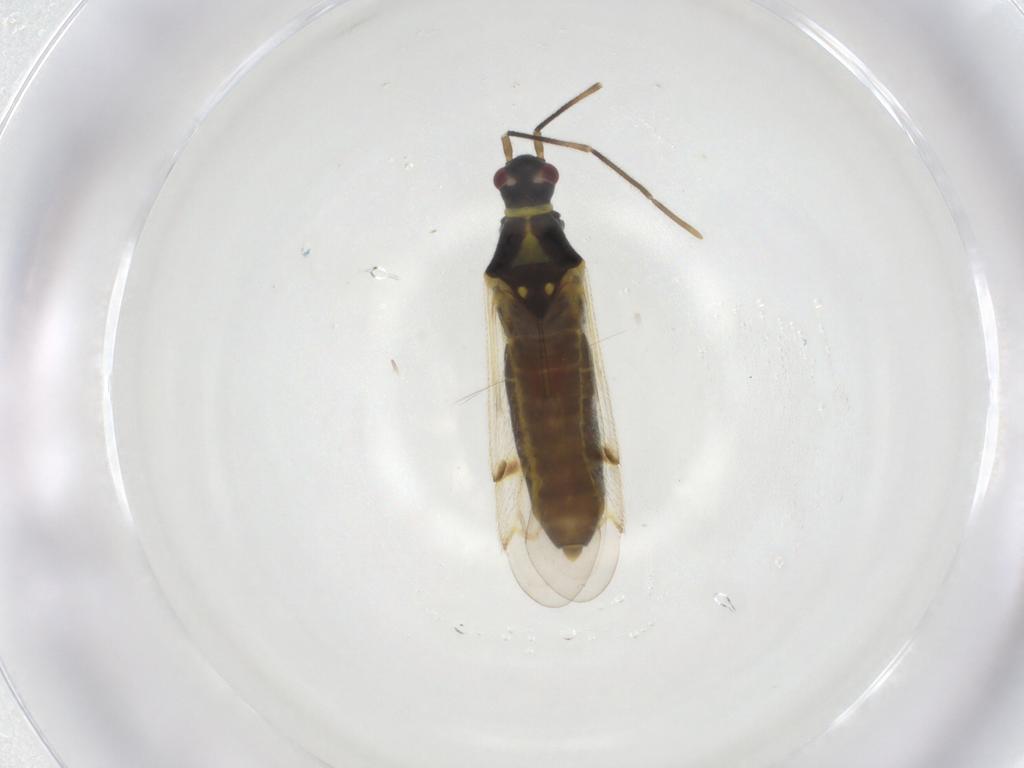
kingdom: Animalia
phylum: Arthropoda
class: Insecta
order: Hemiptera
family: Miridae
